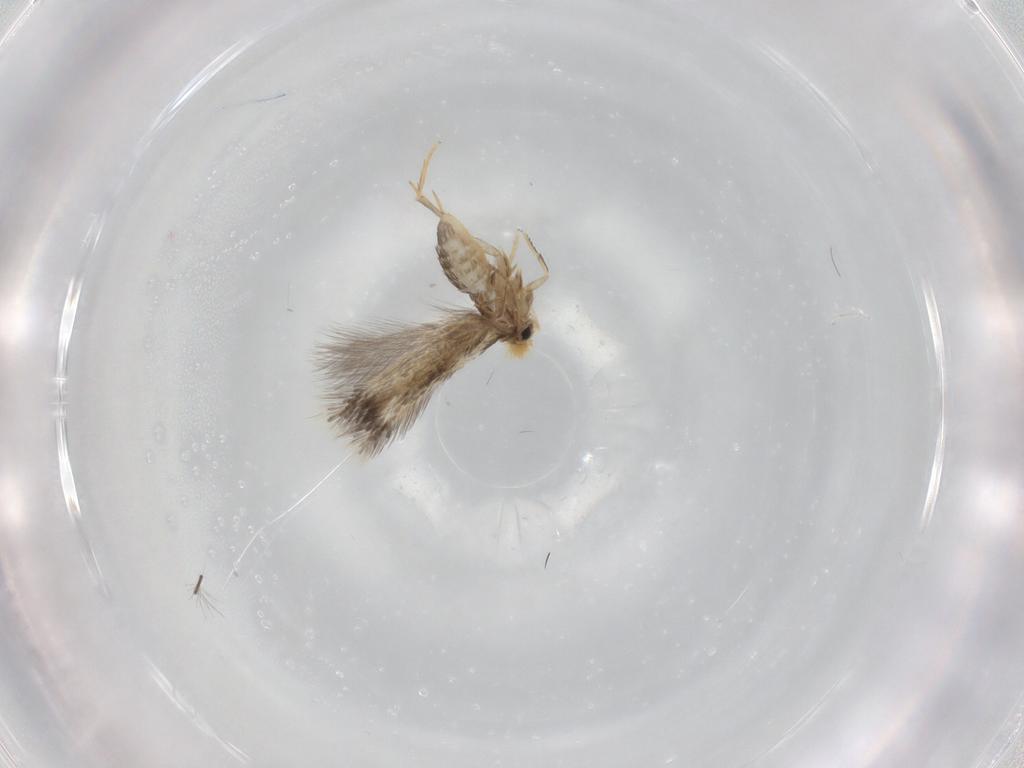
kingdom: Animalia
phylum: Arthropoda
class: Insecta
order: Lepidoptera
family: Nepticulidae
